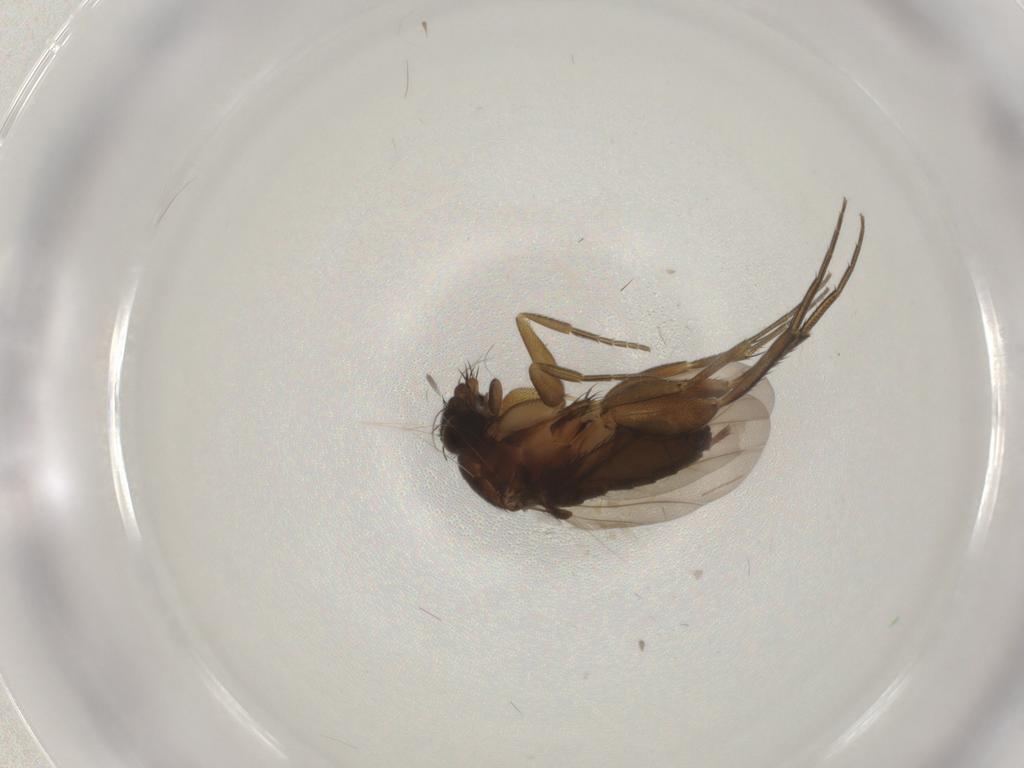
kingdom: Animalia
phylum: Arthropoda
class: Insecta
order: Diptera
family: Phoridae
